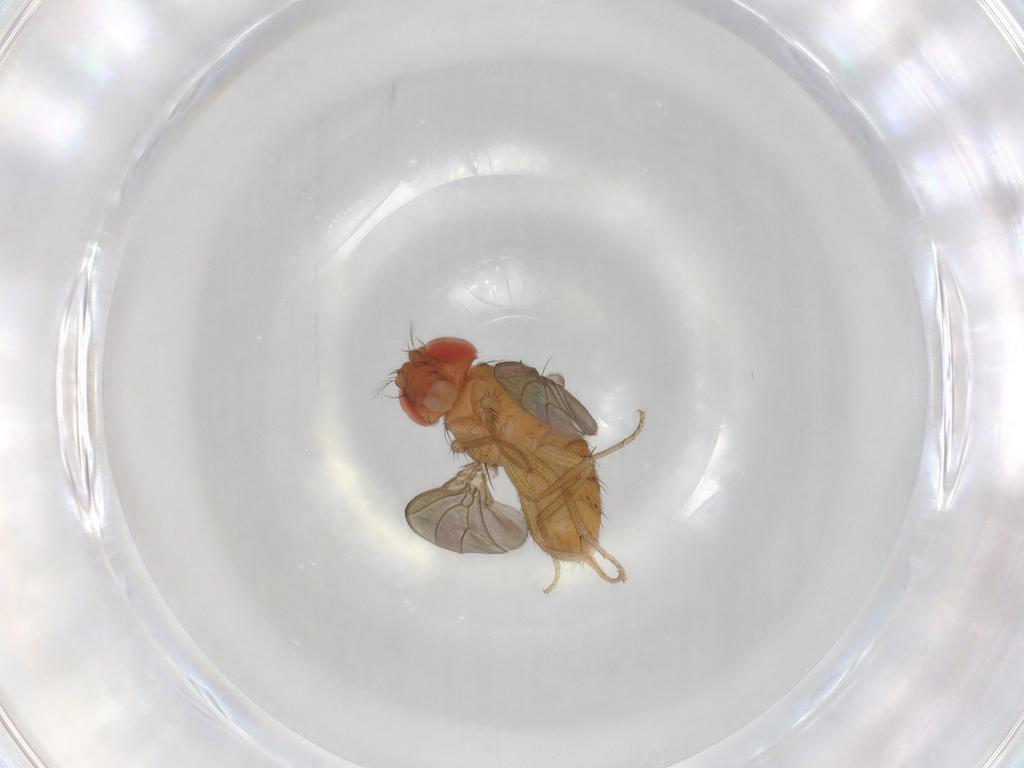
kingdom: Animalia
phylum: Arthropoda
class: Insecta
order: Diptera
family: Drosophilidae
